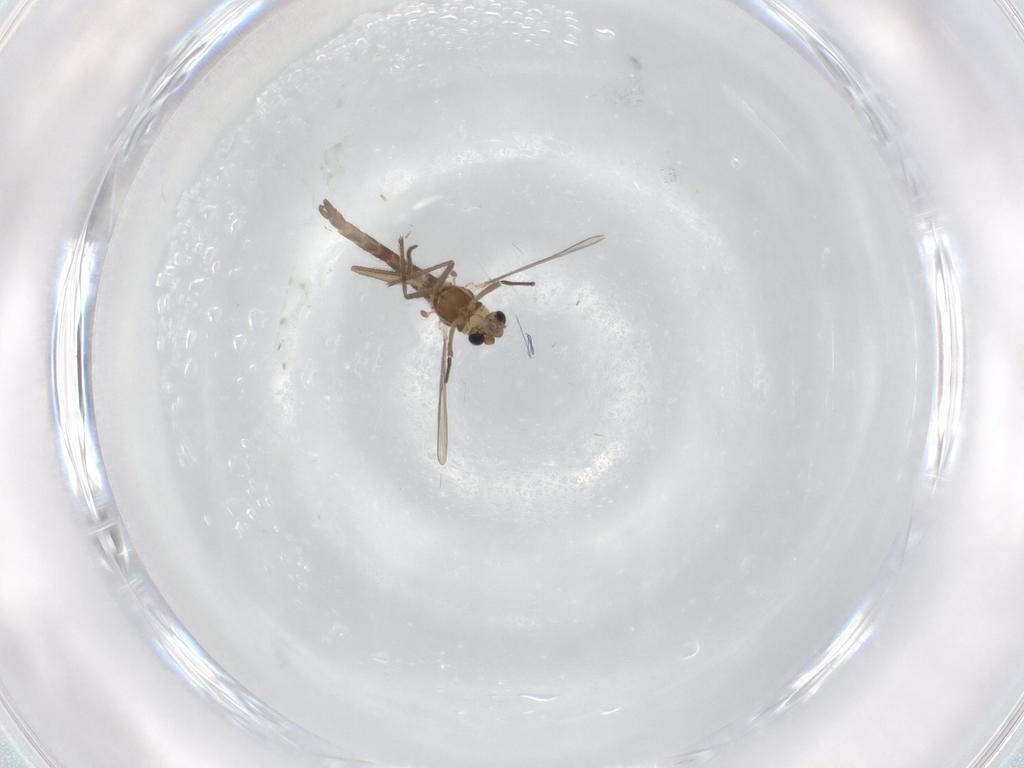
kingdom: Animalia
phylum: Arthropoda
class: Insecta
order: Diptera
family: Chironomidae
